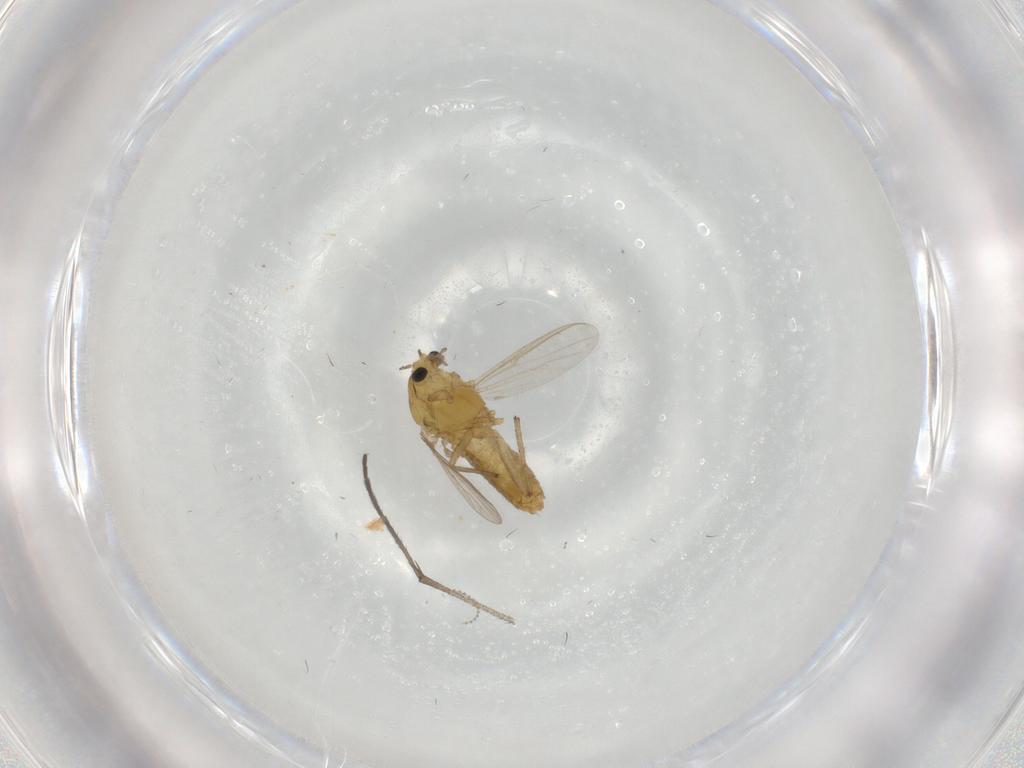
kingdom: Animalia
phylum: Arthropoda
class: Insecta
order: Diptera
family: Chironomidae
